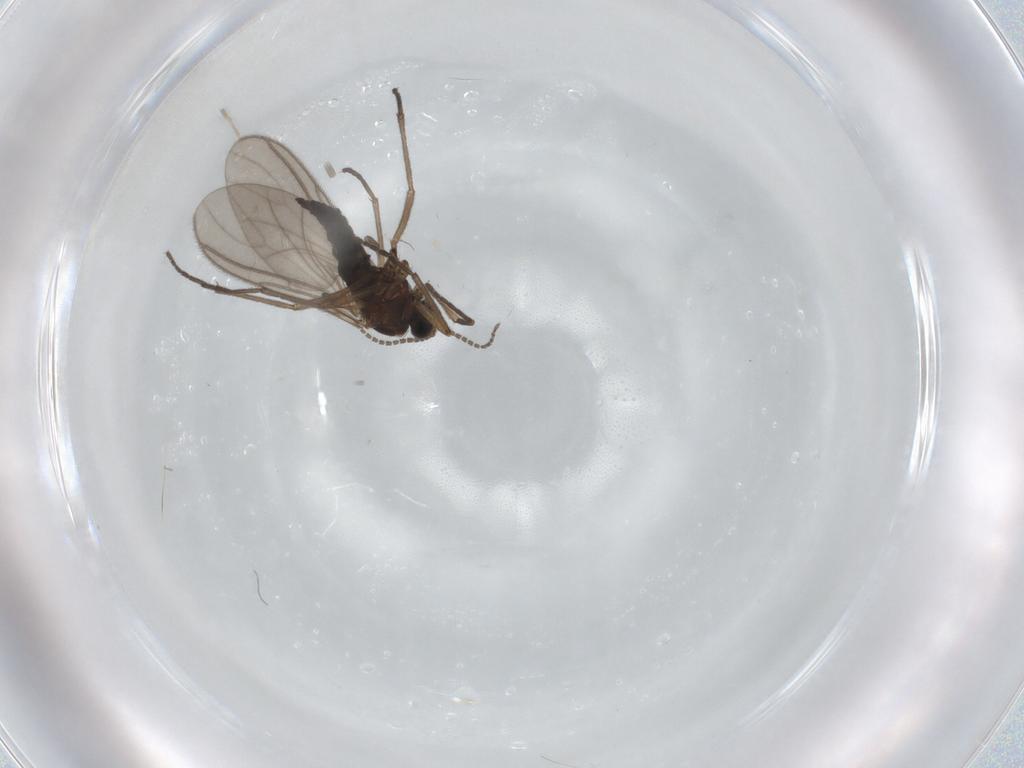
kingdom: Animalia
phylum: Arthropoda
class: Insecta
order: Diptera
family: Sciaridae
